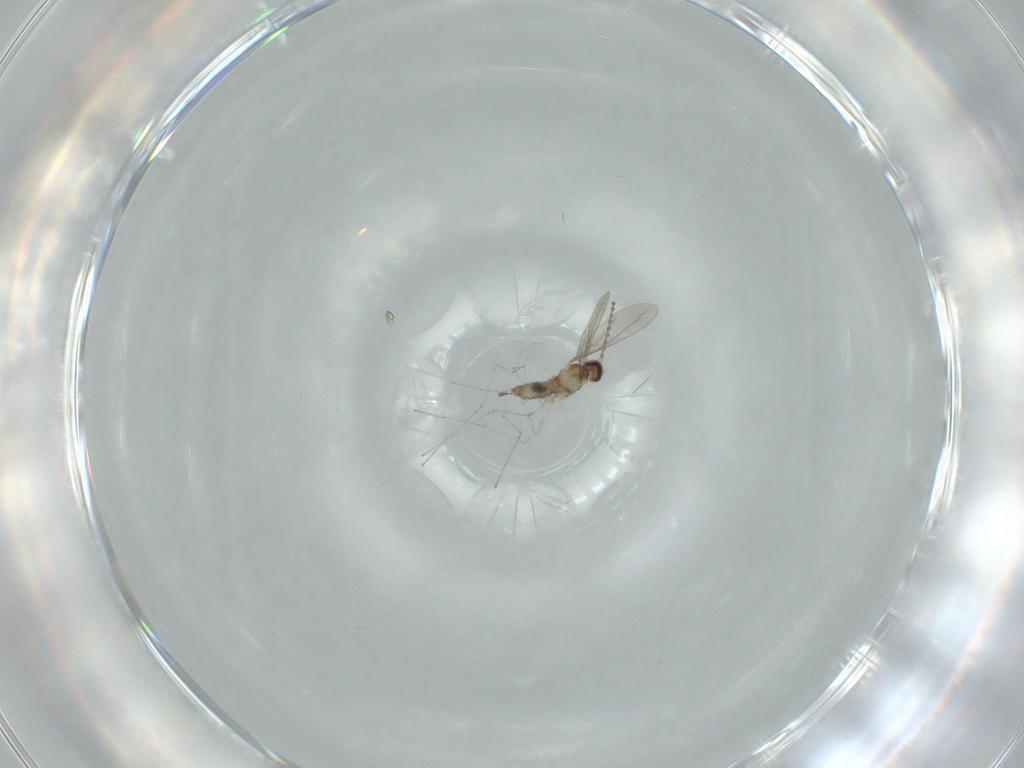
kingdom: Animalia
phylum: Arthropoda
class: Insecta
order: Diptera
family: Cecidomyiidae
